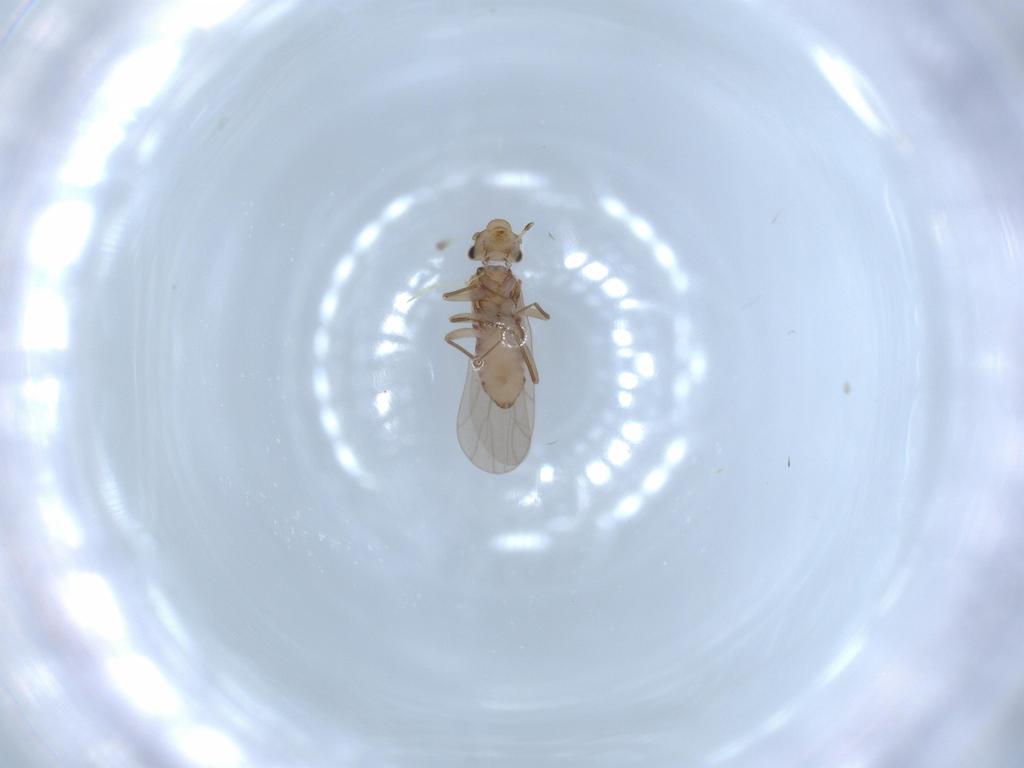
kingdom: Animalia
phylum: Arthropoda
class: Insecta
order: Psocodea
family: Lepidopsocidae
